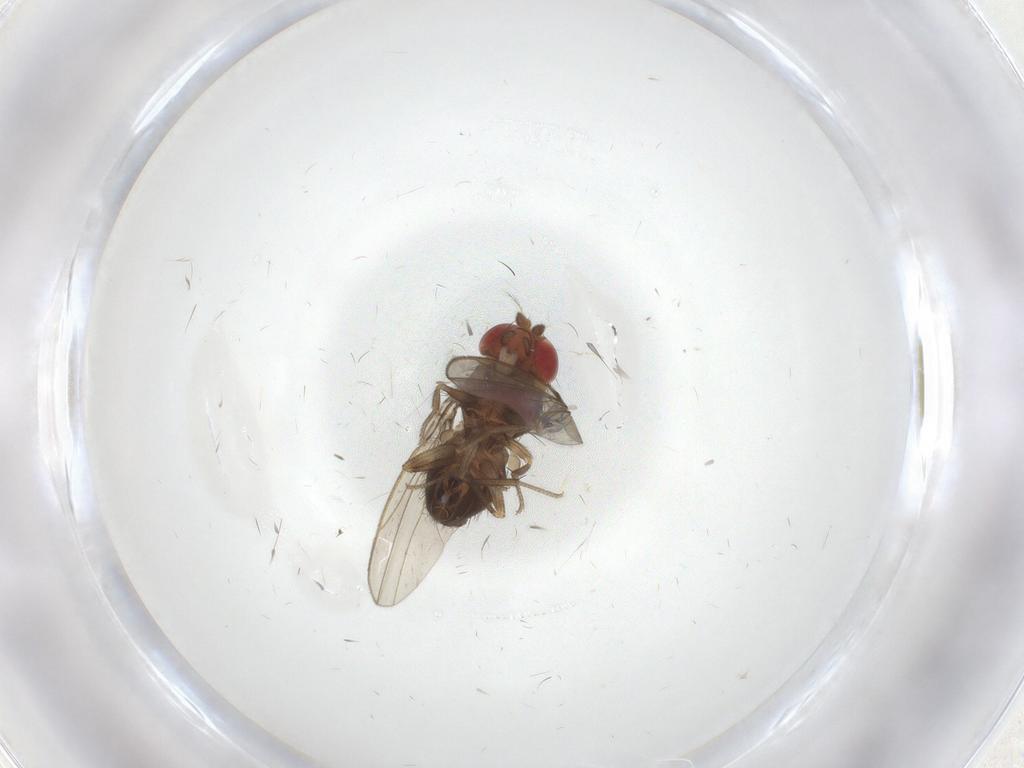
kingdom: Animalia
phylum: Arthropoda
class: Insecta
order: Diptera
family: Drosophilidae
